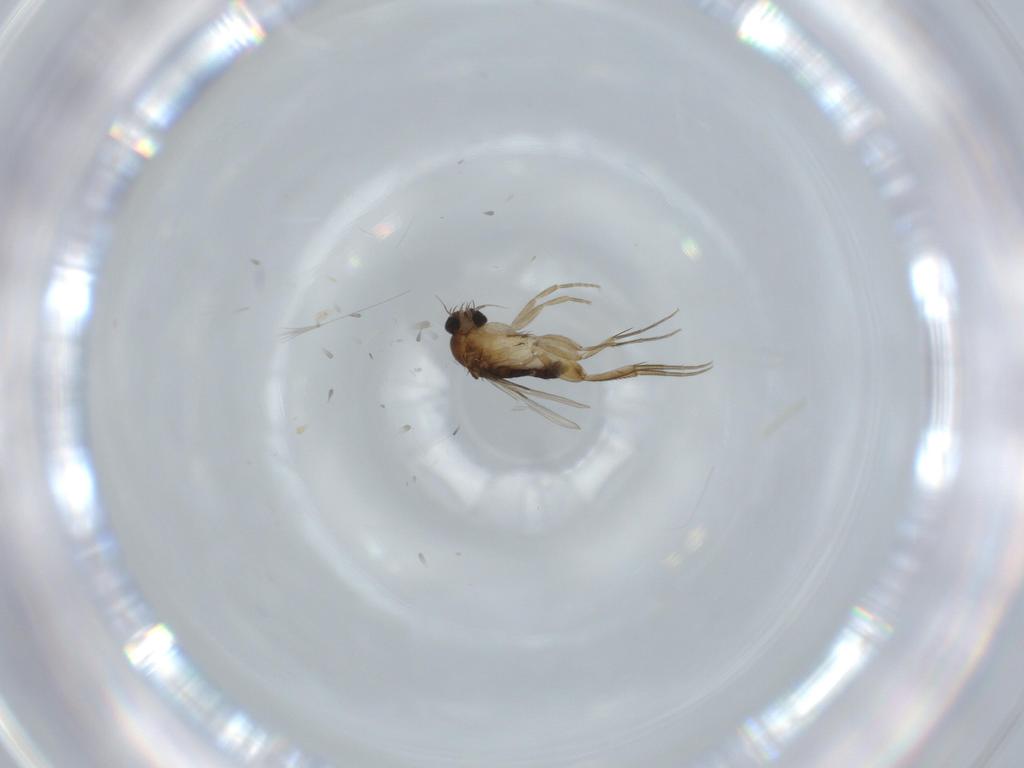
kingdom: Animalia
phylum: Arthropoda
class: Insecta
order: Diptera
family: Phoridae
